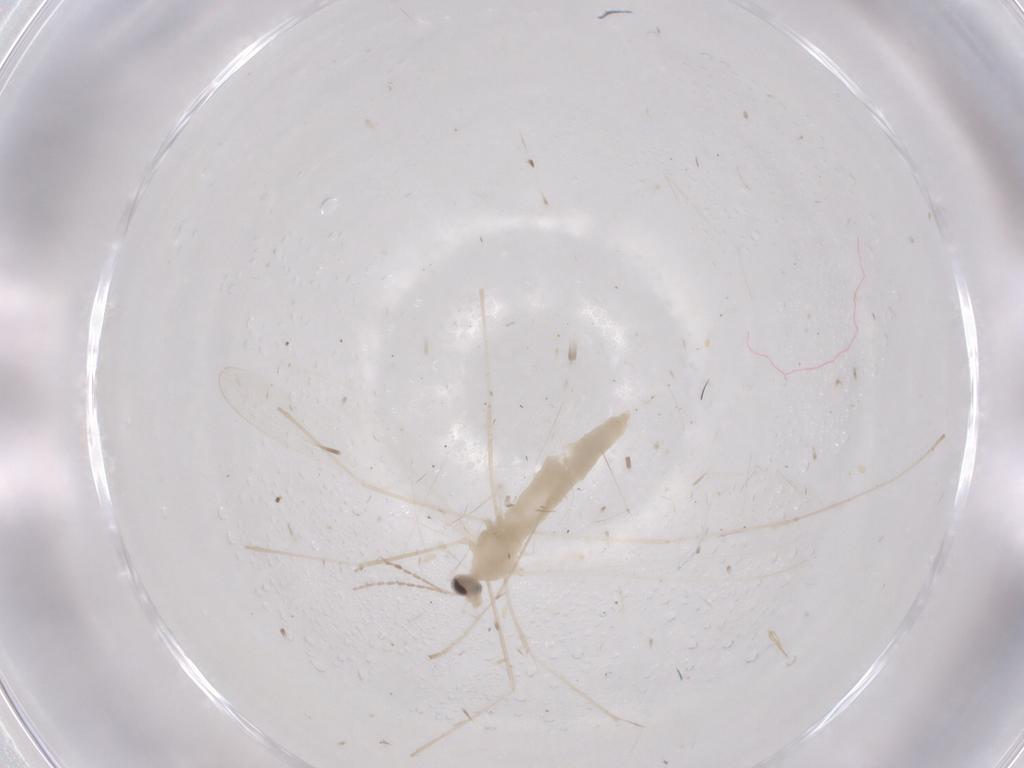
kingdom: Animalia
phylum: Arthropoda
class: Insecta
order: Diptera
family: Cecidomyiidae
